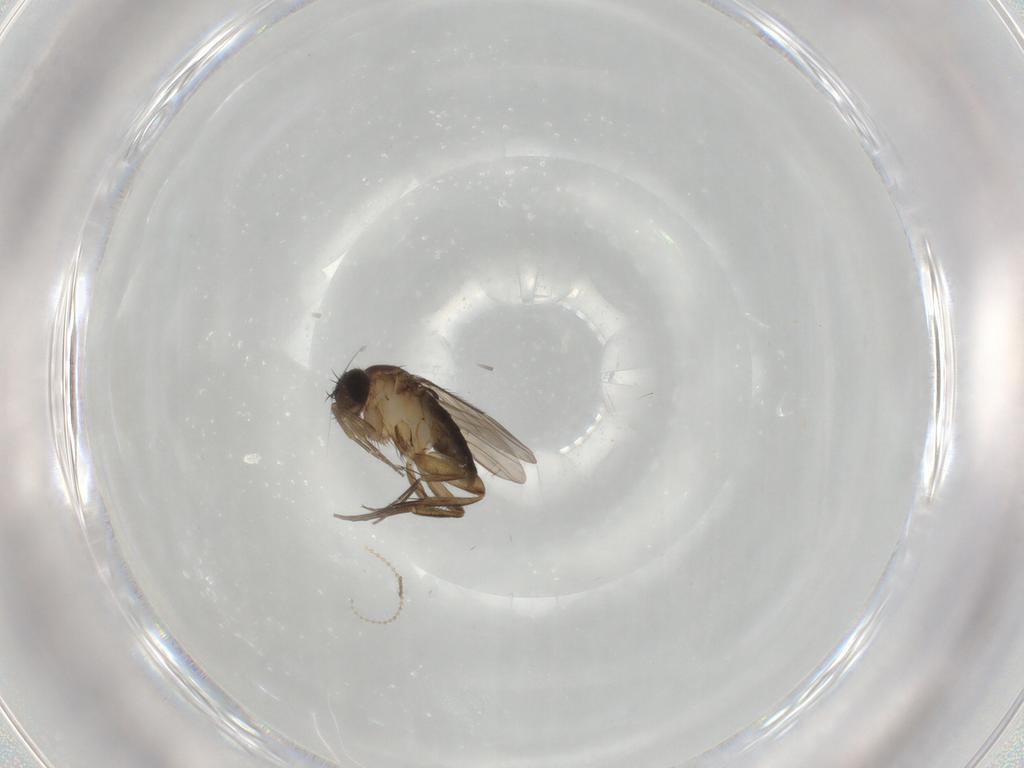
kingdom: Animalia
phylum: Arthropoda
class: Insecta
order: Diptera
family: Phoridae
